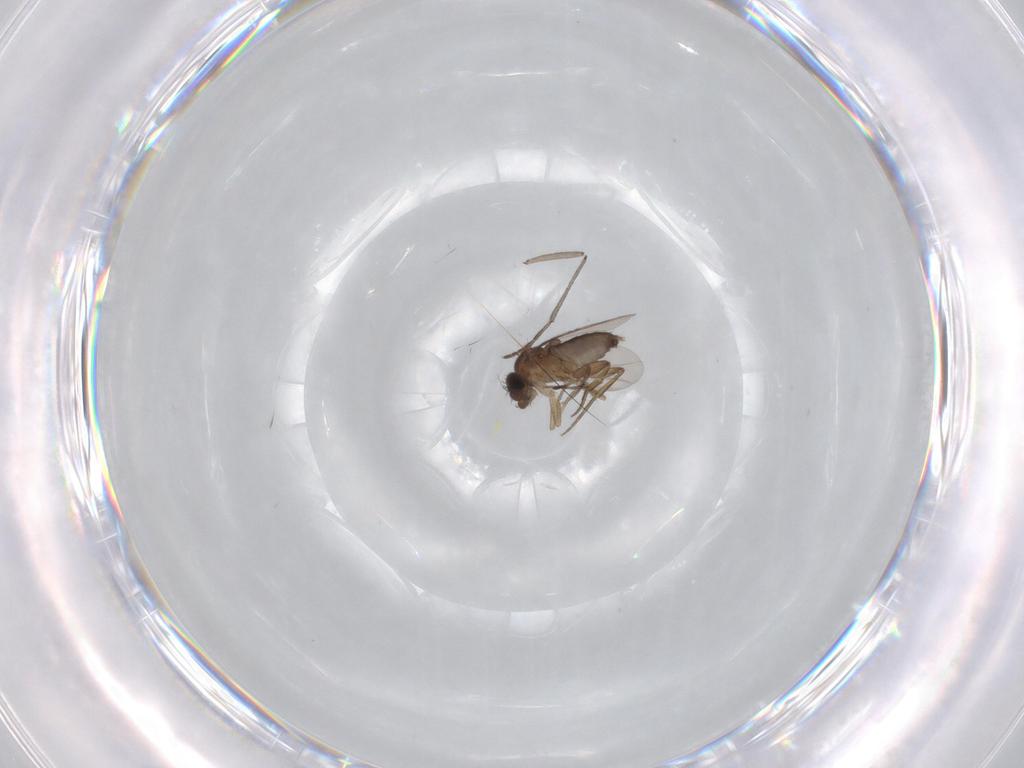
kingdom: Animalia
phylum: Arthropoda
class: Insecta
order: Diptera
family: Phoridae
